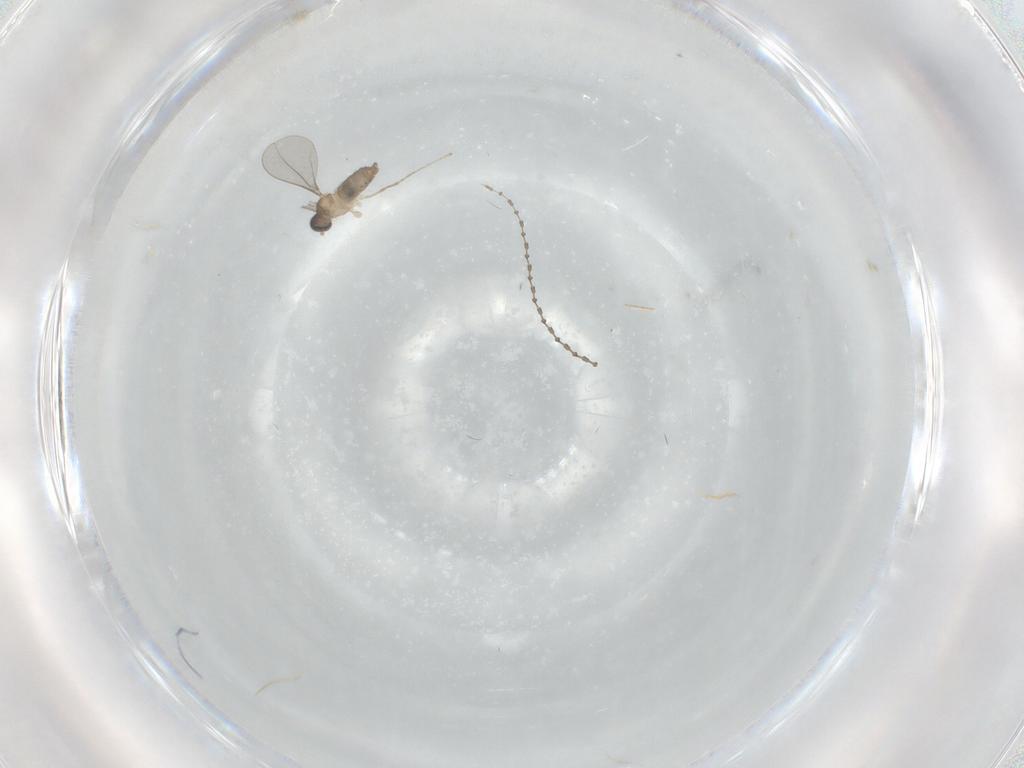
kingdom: Animalia
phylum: Arthropoda
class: Insecta
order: Diptera
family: Cecidomyiidae
